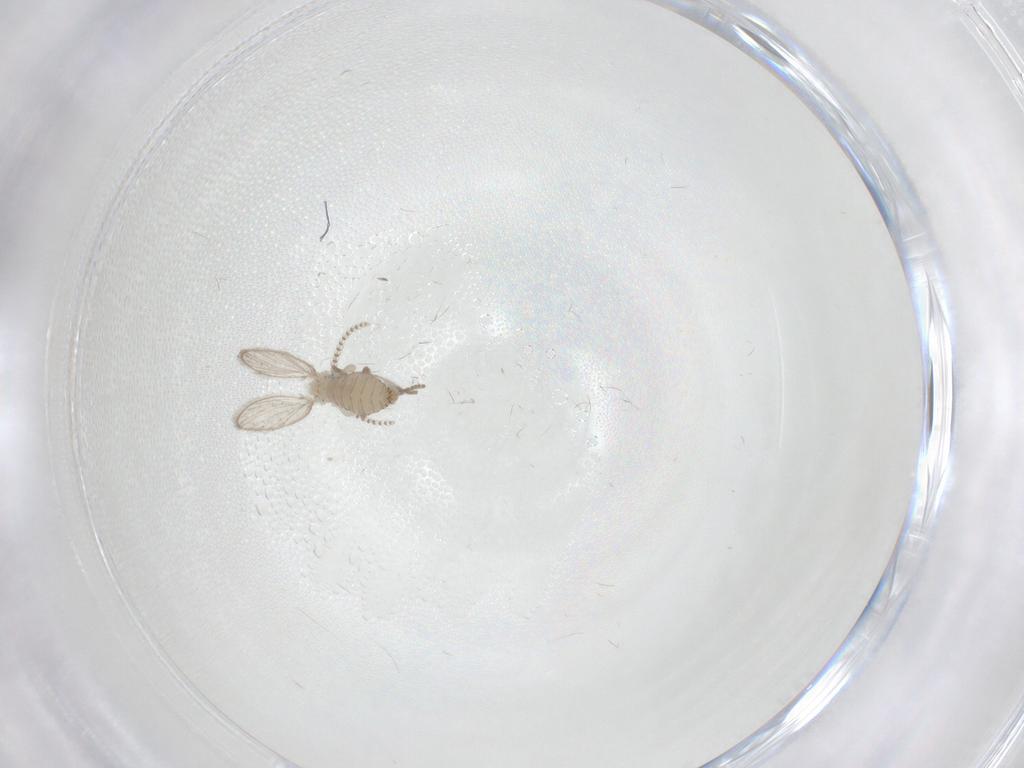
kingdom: Animalia
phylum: Arthropoda
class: Insecta
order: Diptera
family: Psychodidae
